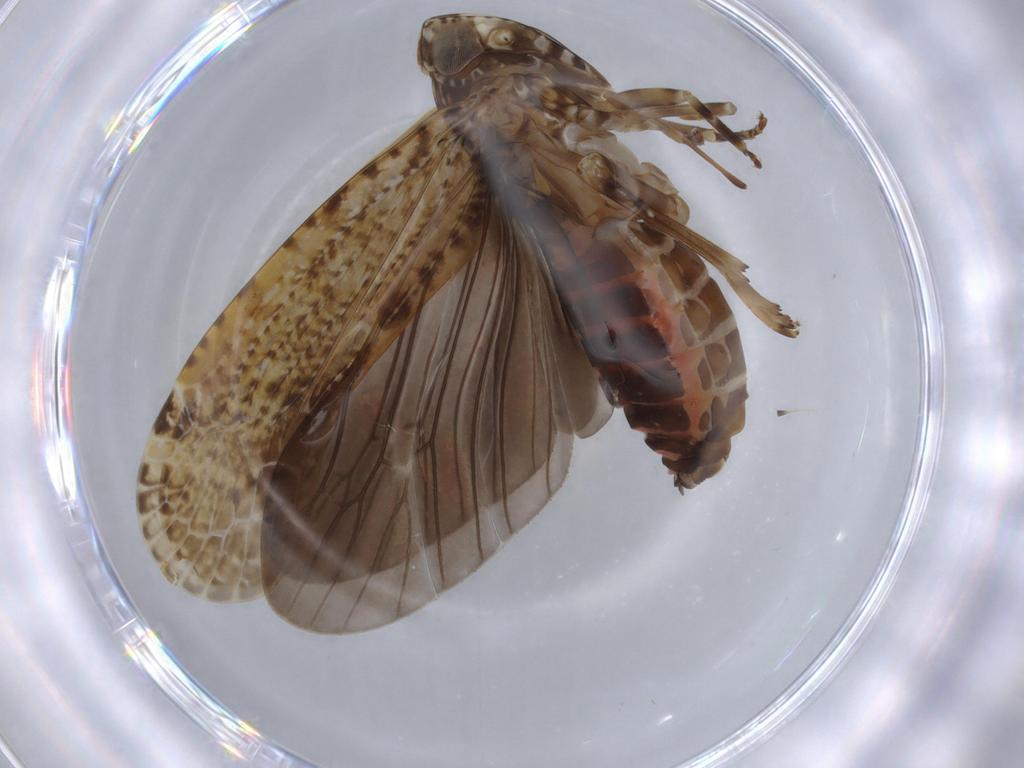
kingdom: Animalia
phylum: Arthropoda
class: Insecta
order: Hemiptera
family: Achilidae
